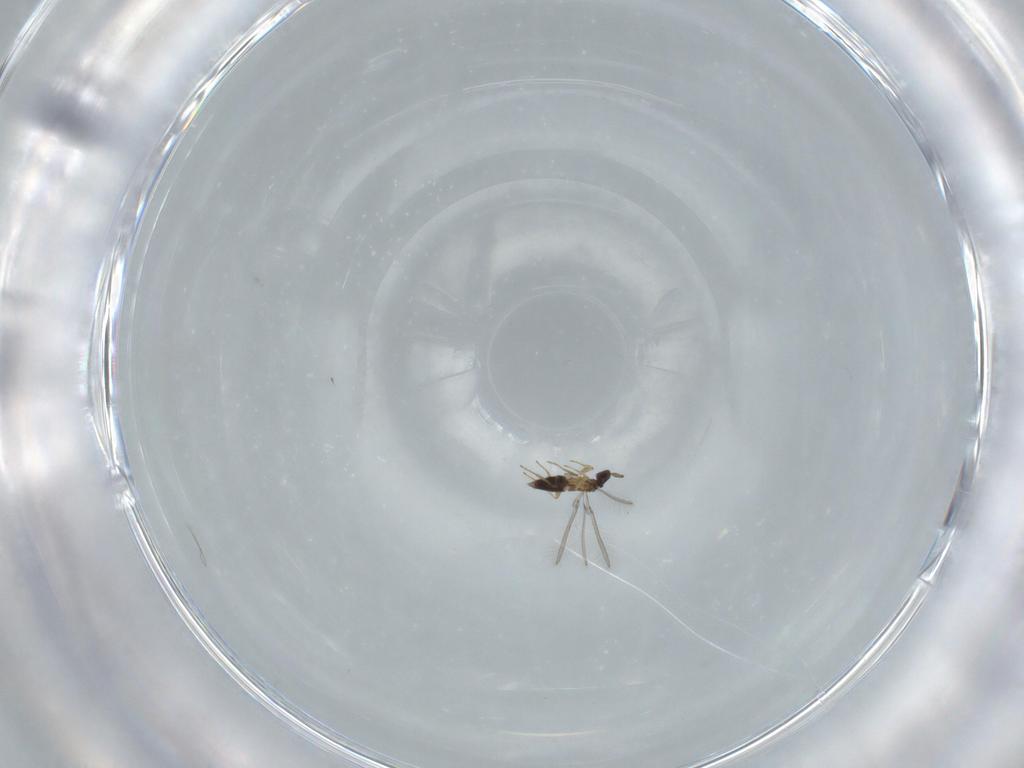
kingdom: Animalia
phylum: Arthropoda
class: Insecta
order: Hymenoptera
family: Mymaridae
